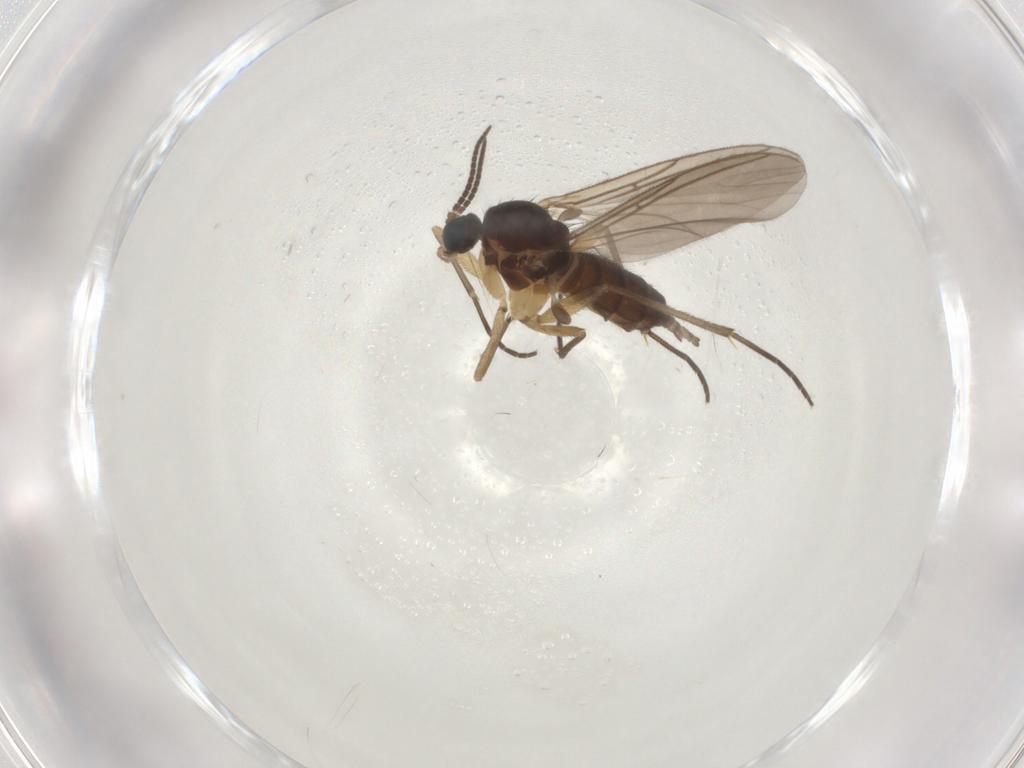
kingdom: Animalia
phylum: Arthropoda
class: Insecta
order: Diptera
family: Sciaridae
